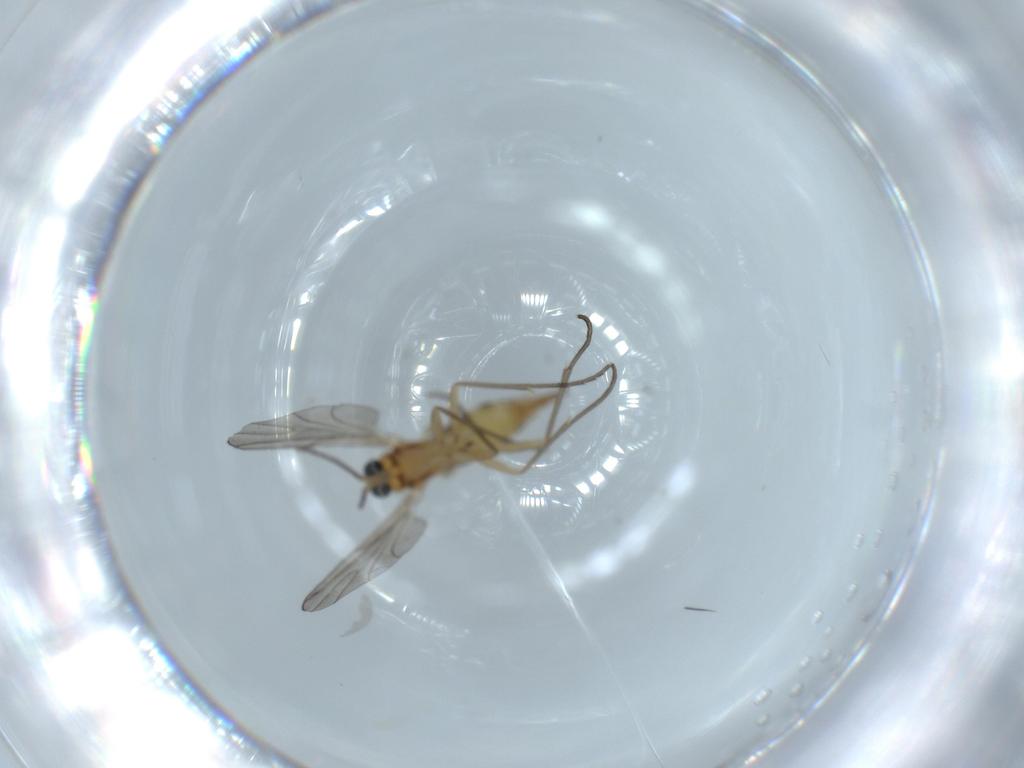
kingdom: Animalia
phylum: Arthropoda
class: Insecta
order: Diptera
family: Sciaridae
